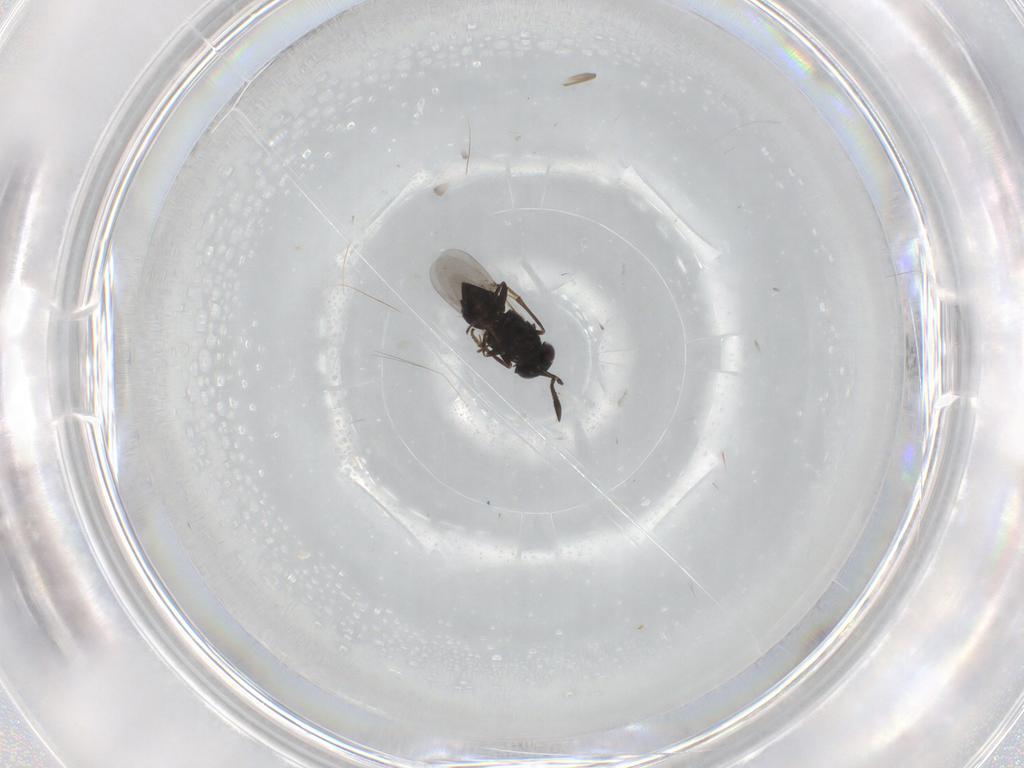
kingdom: Animalia
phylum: Arthropoda
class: Insecta
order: Hymenoptera
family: Encyrtidae
